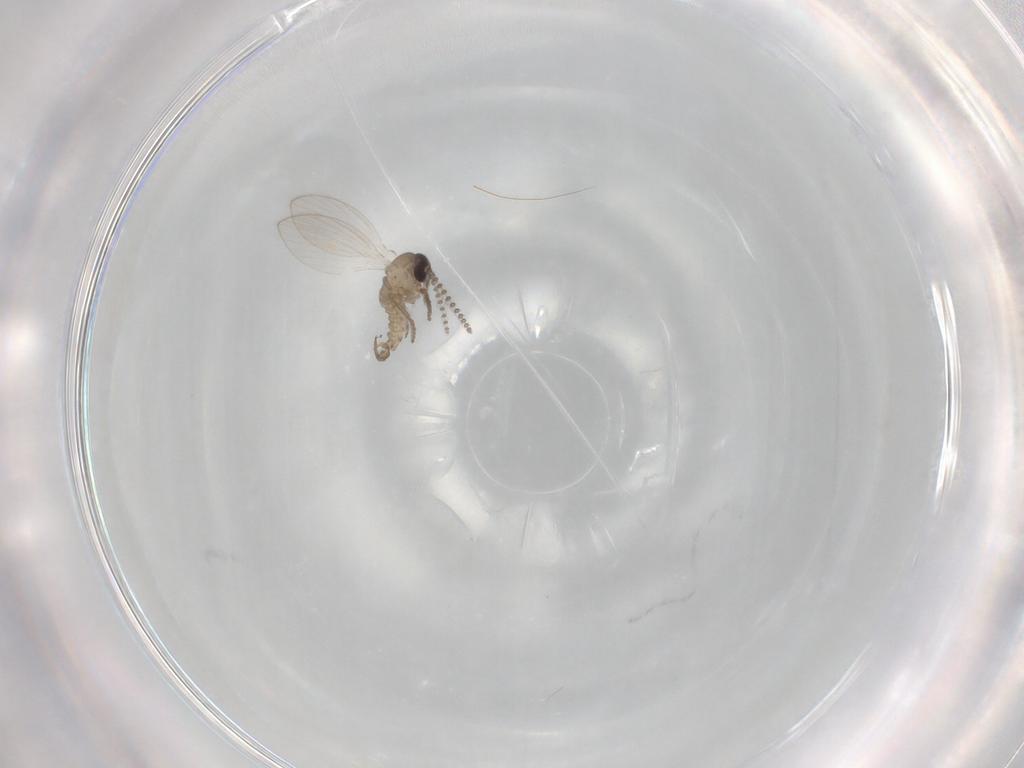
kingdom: Animalia
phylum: Arthropoda
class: Insecta
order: Diptera
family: Psychodidae
